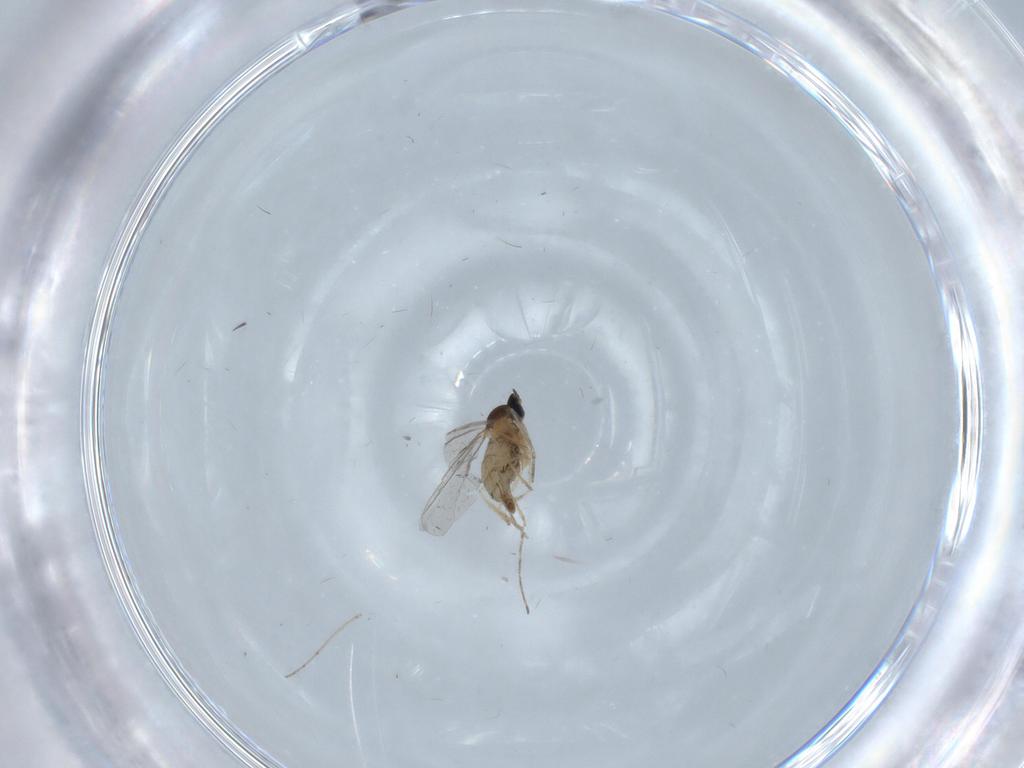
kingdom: Animalia
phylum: Arthropoda
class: Insecta
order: Diptera
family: Cecidomyiidae
